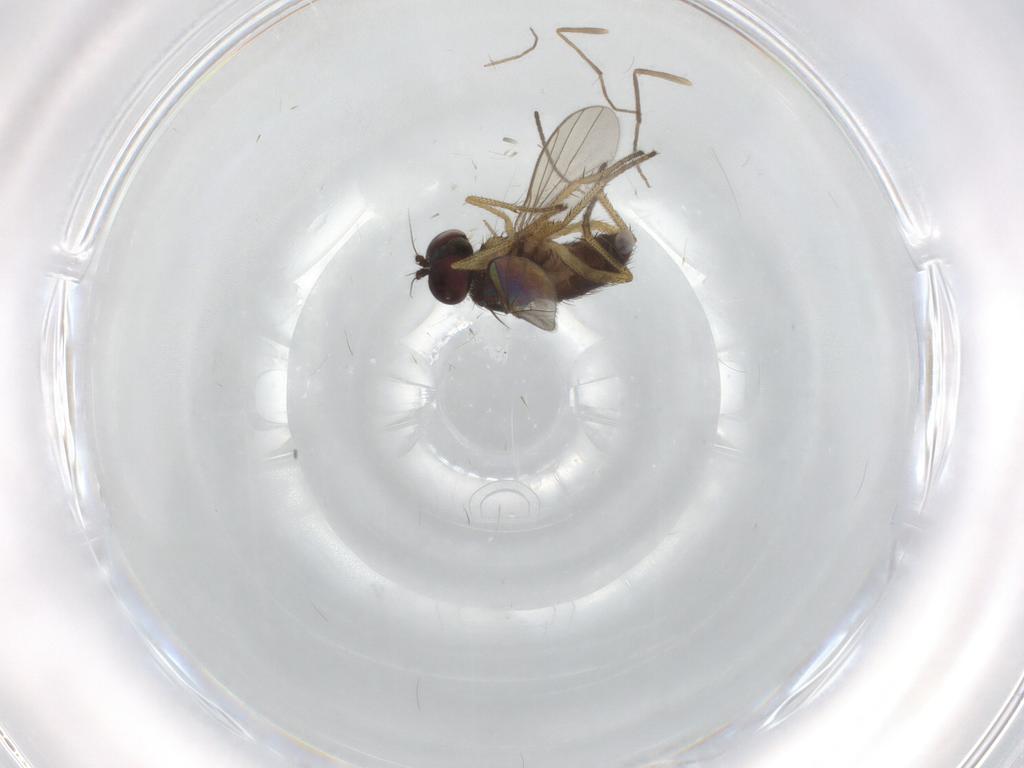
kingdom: Animalia
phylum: Arthropoda
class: Insecta
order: Diptera
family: Chironomidae
